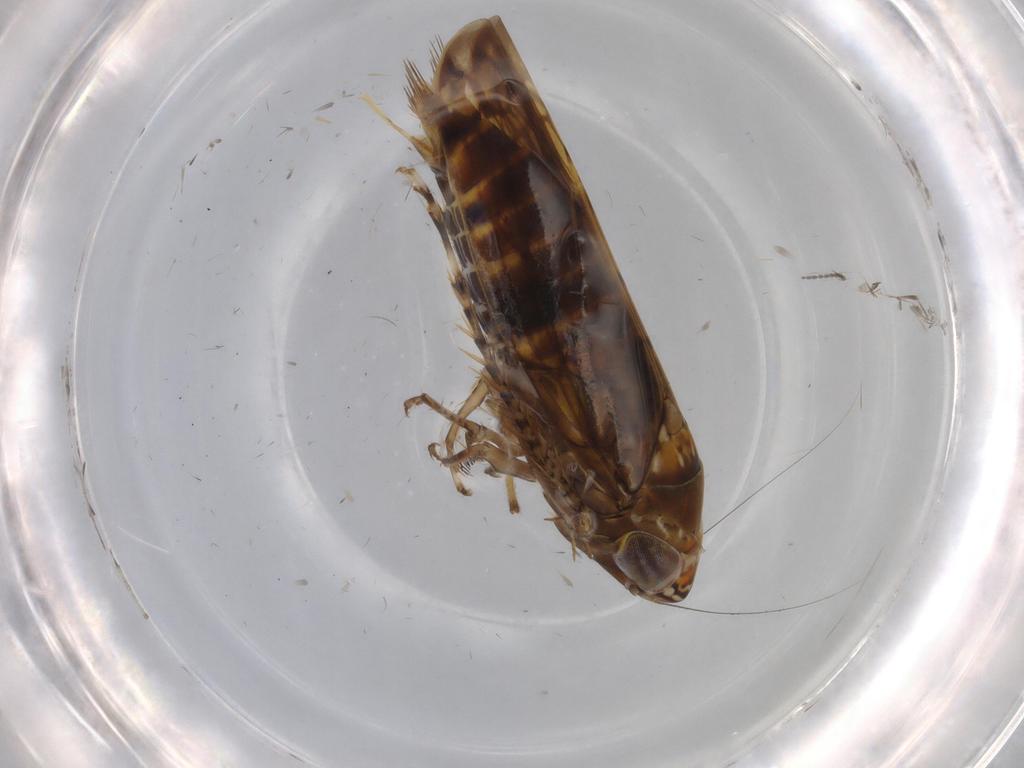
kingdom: Animalia
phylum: Arthropoda
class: Insecta
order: Hemiptera
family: Cicadellidae
